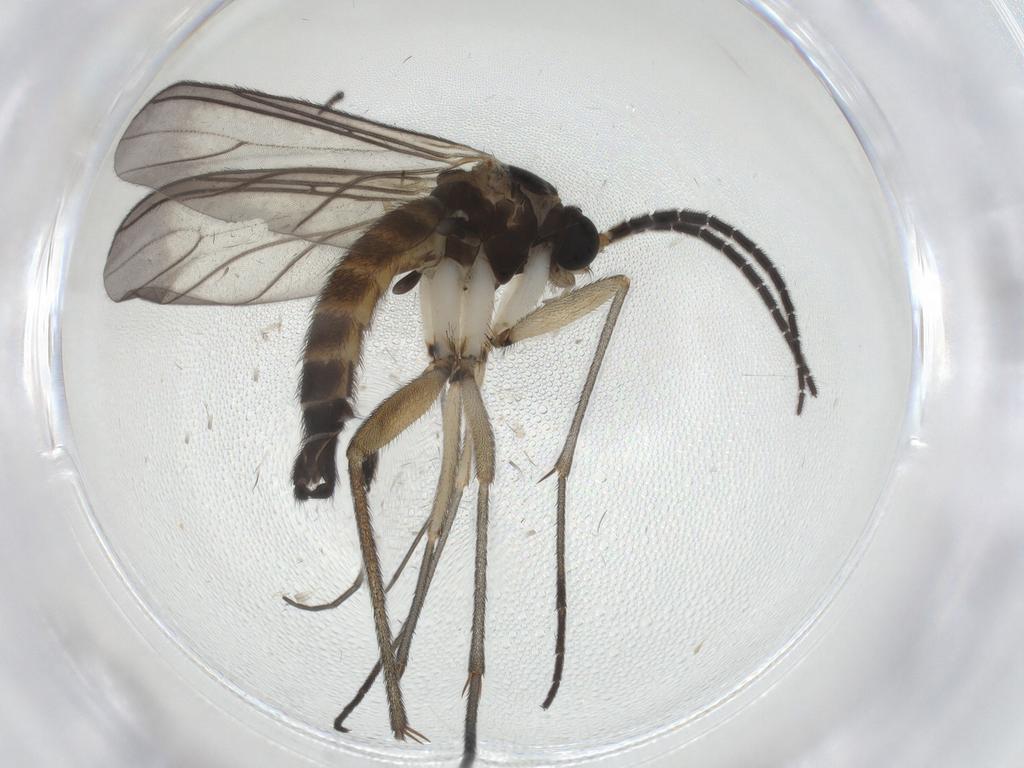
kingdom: Animalia
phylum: Arthropoda
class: Insecta
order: Diptera
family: Sciaridae
